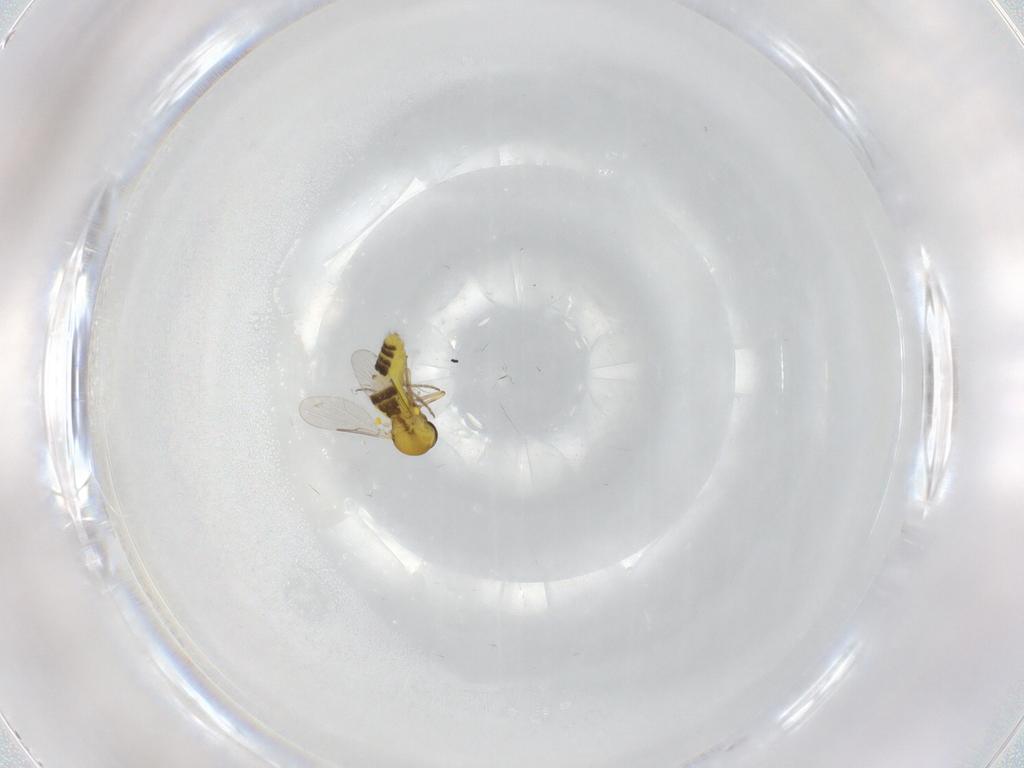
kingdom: Animalia
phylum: Arthropoda
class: Insecta
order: Diptera
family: Ceratopogonidae
